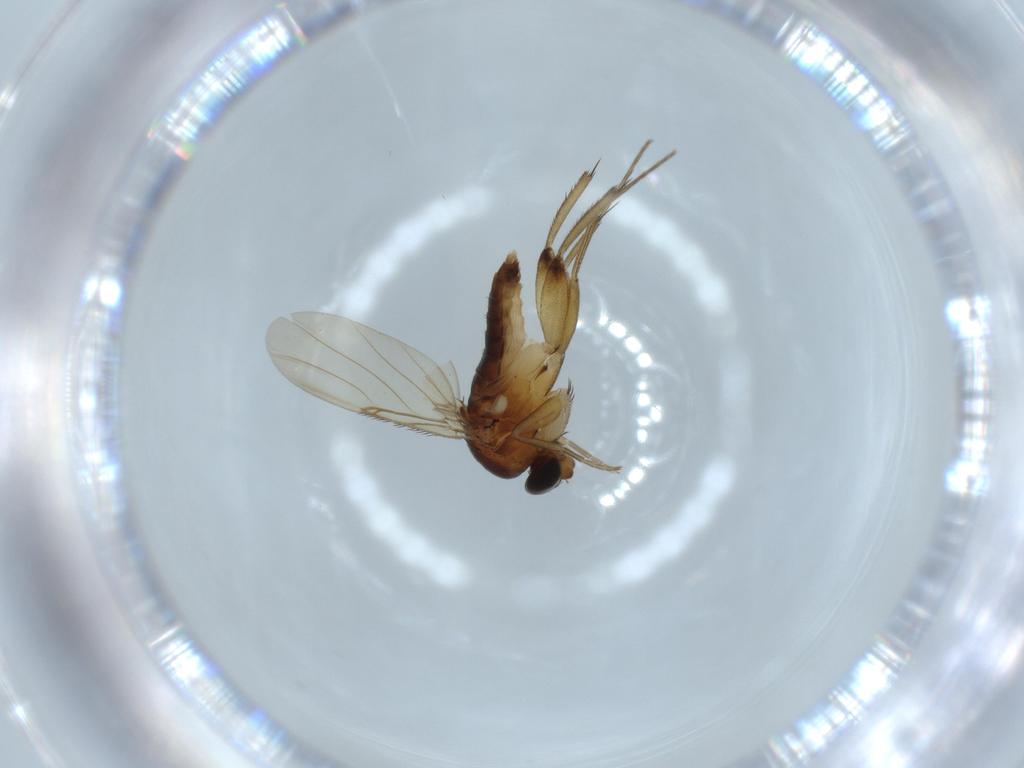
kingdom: Animalia
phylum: Arthropoda
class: Insecta
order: Diptera
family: Phoridae
